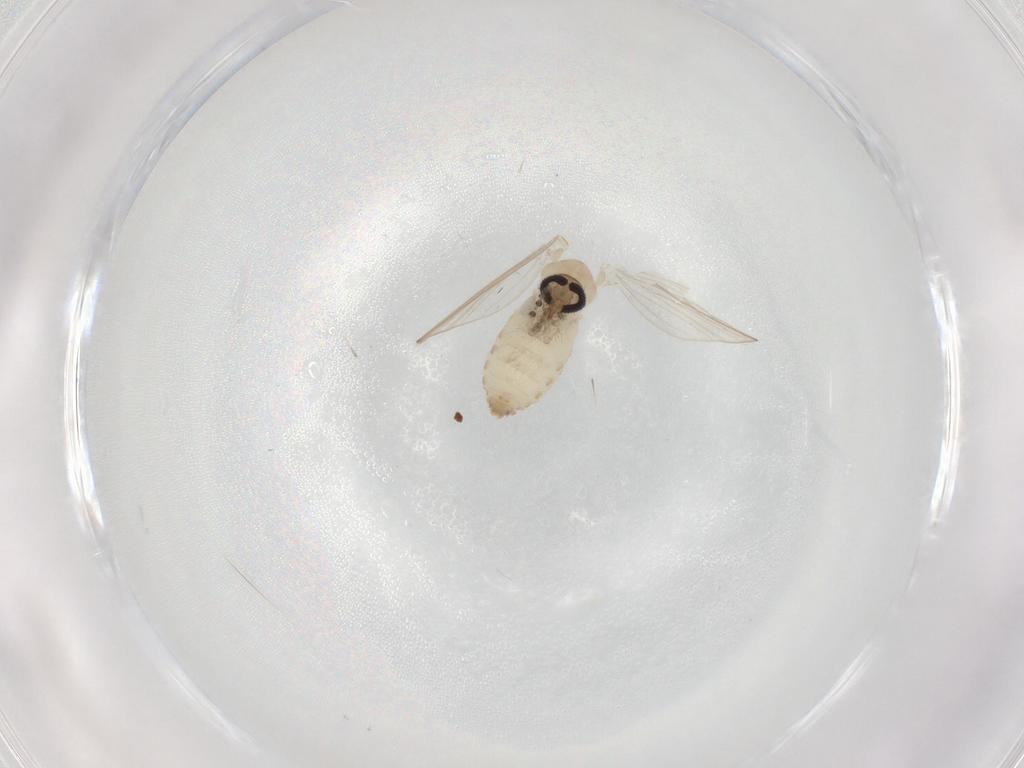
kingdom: Animalia
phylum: Arthropoda
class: Insecta
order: Diptera
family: Psychodidae
